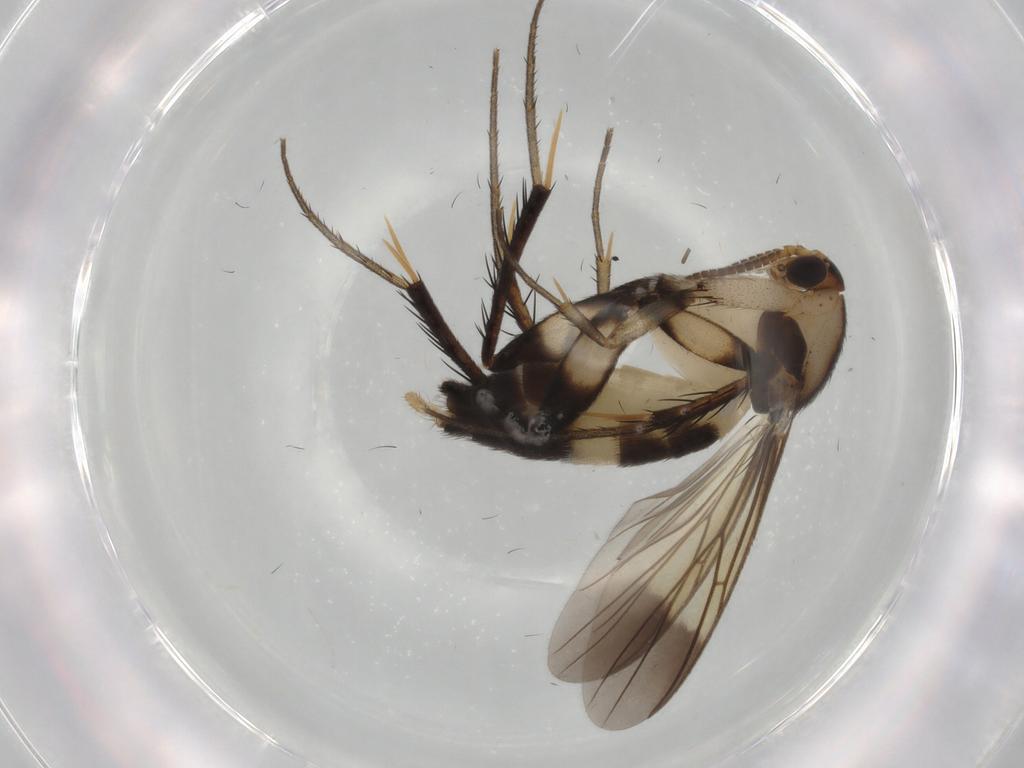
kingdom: Animalia
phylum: Arthropoda
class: Insecta
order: Diptera
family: Mycetophilidae
